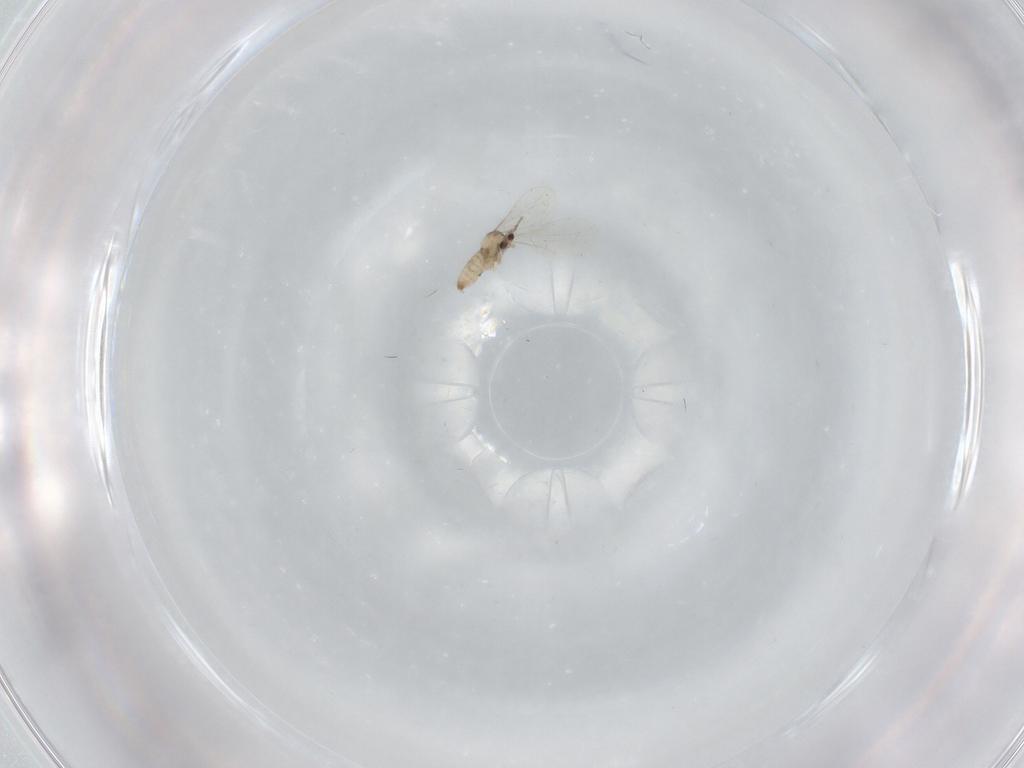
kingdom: Animalia
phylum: Arthropoda
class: Insecta
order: Diptera
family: Cecidomyiidae
